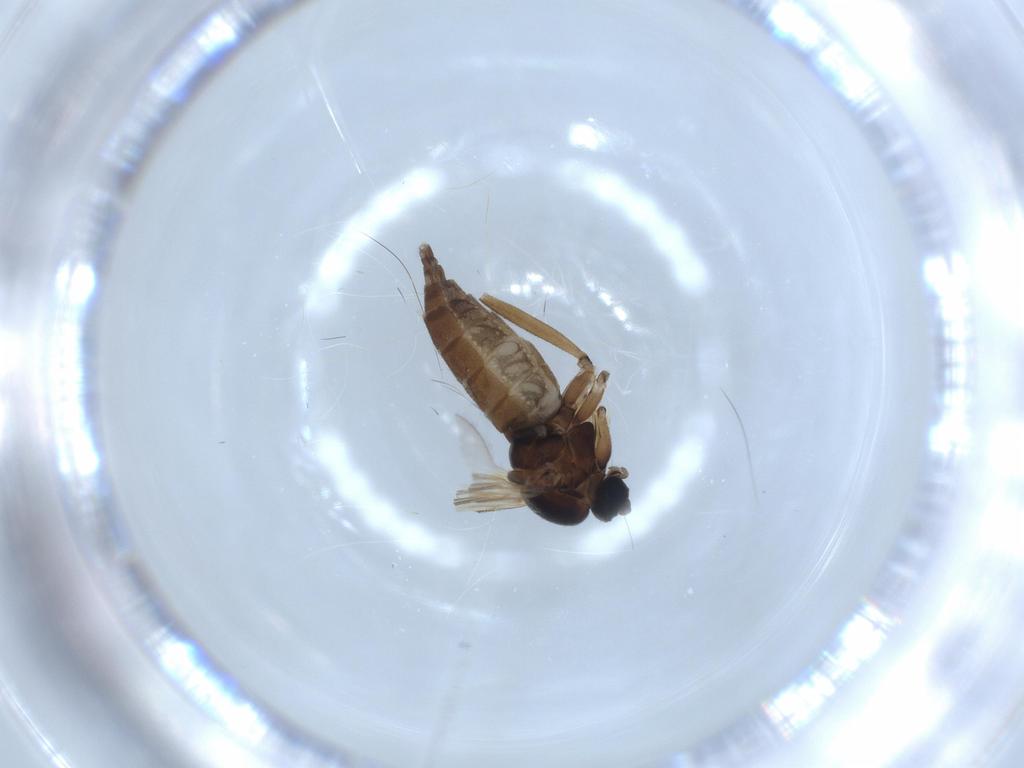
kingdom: Animalia
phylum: Arthropoda
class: Insecta
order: Diptera
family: Sciaridae
